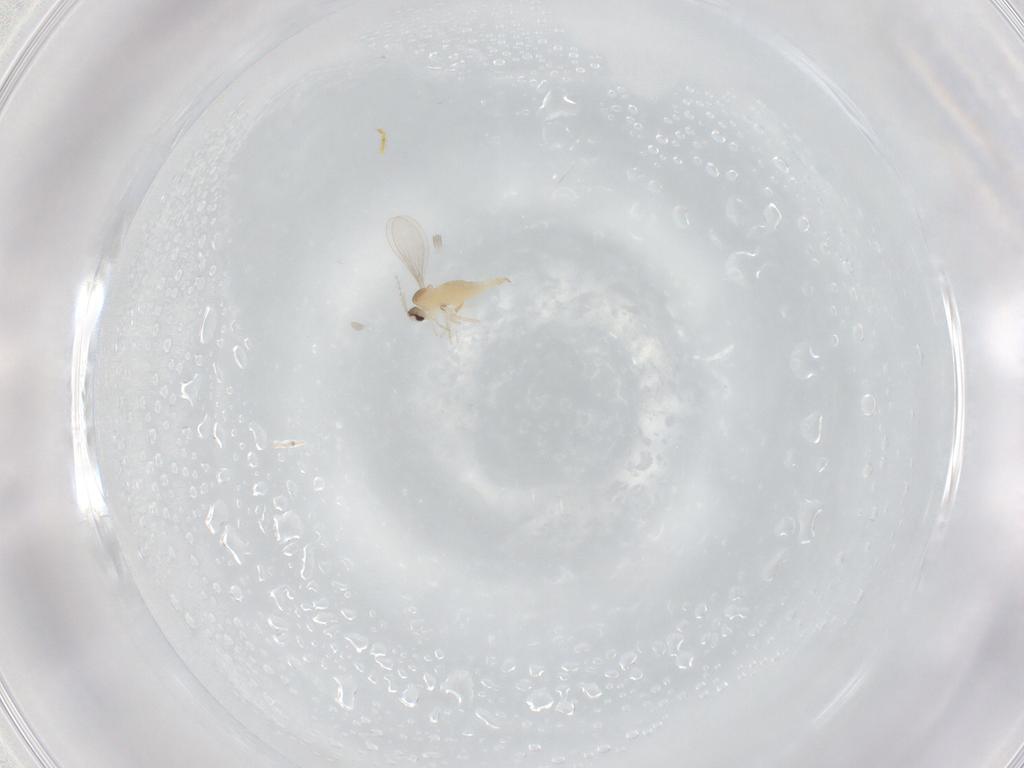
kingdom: Animalia
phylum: Arthropoda
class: Insecta
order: Diptera
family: Cecidomyiidae
